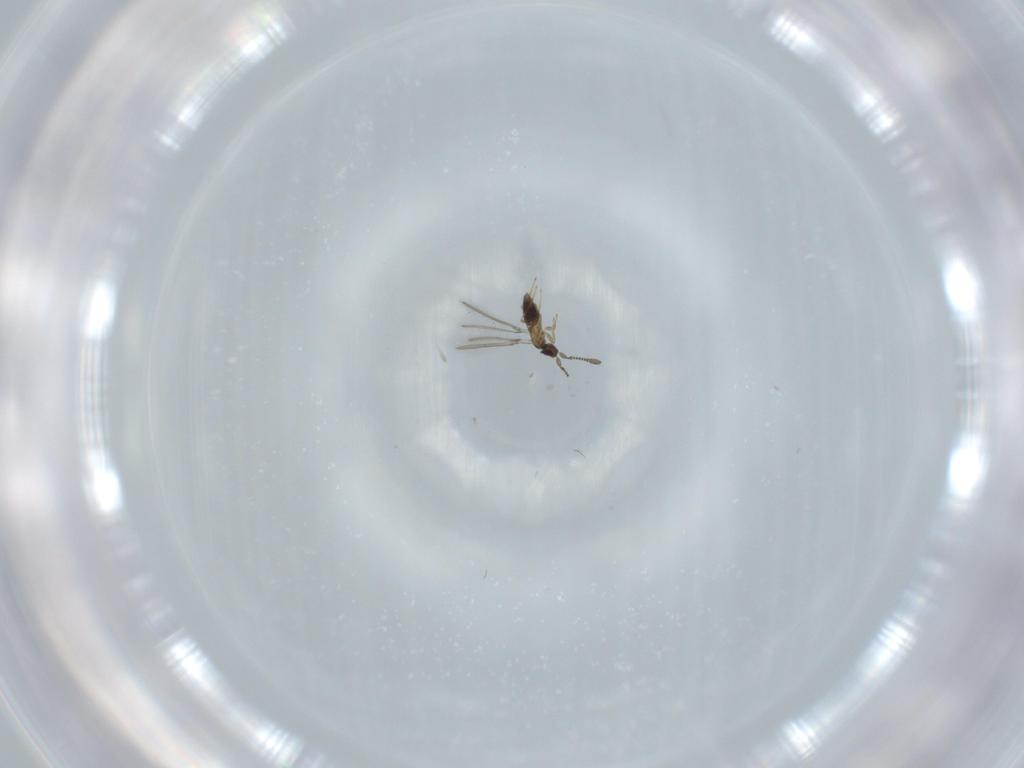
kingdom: Animalia
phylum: Arthropoda
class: Insecta
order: Hymenoptera
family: Mymaridae
